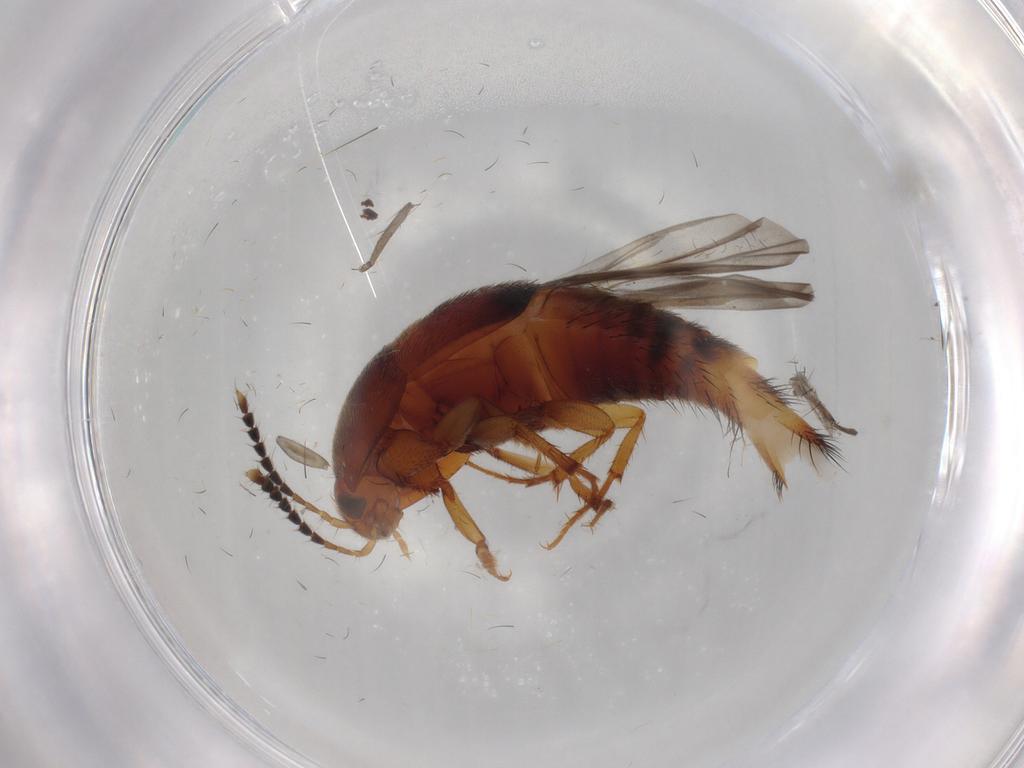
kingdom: Animalia
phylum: Arthropoda
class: Insecta
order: Coleoptera
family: Staphylinidae
